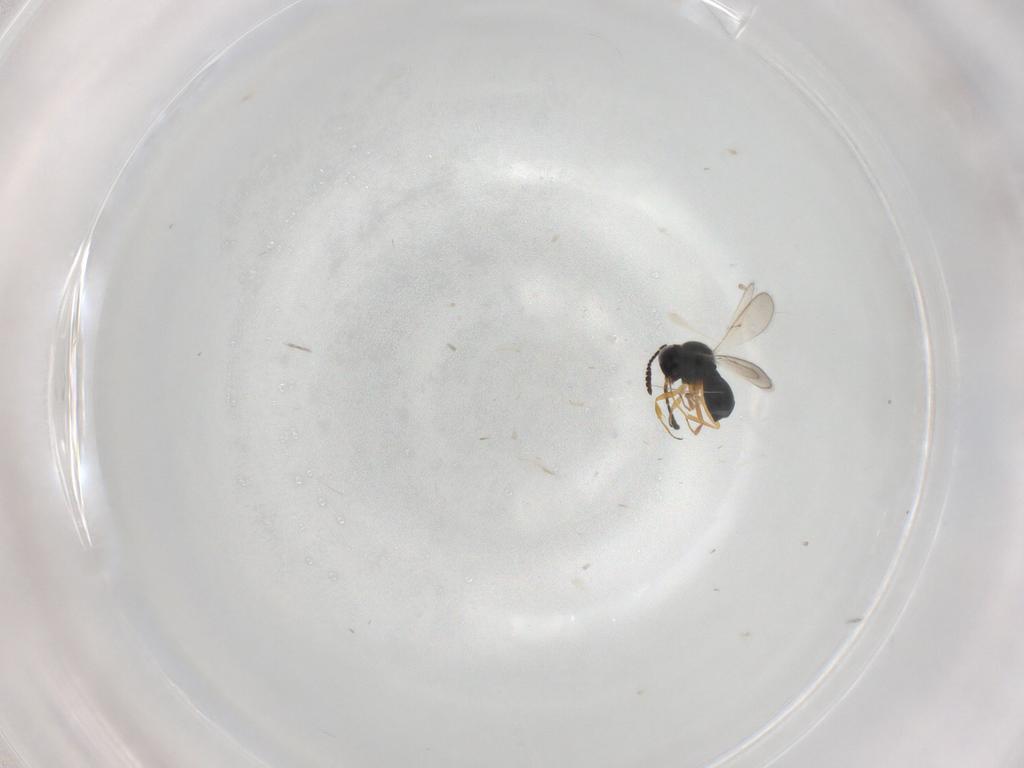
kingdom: Animalia
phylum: Arthropoda
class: Insecta
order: Hymenoptera
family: Scelionidae
